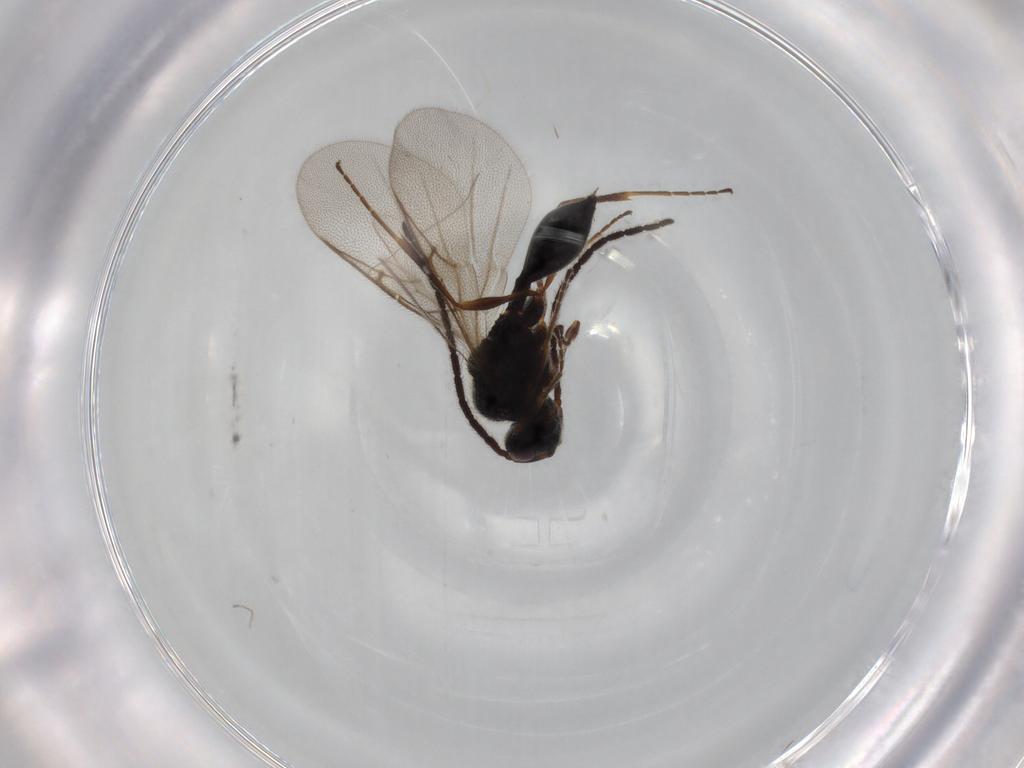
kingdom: Animalia
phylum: Arthropoda
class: Insecta
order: Hymenoptera
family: Diapriidae
